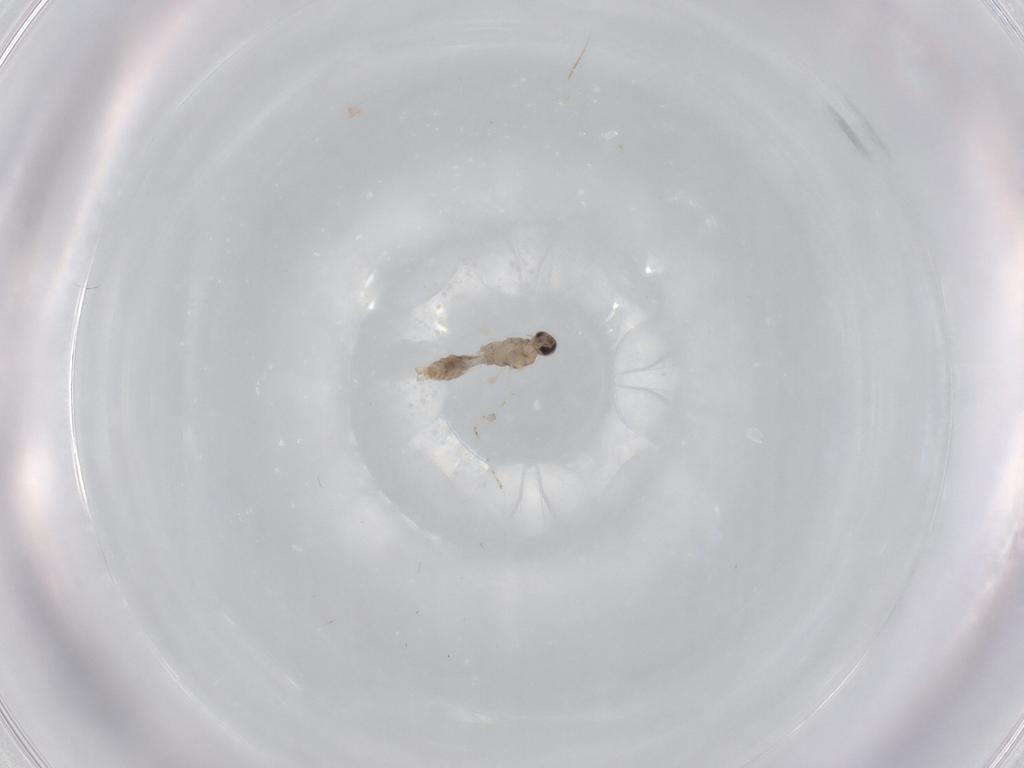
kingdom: Animalia
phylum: Arthropoda
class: Insecta
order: Diptera
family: Cecidomyiidae
